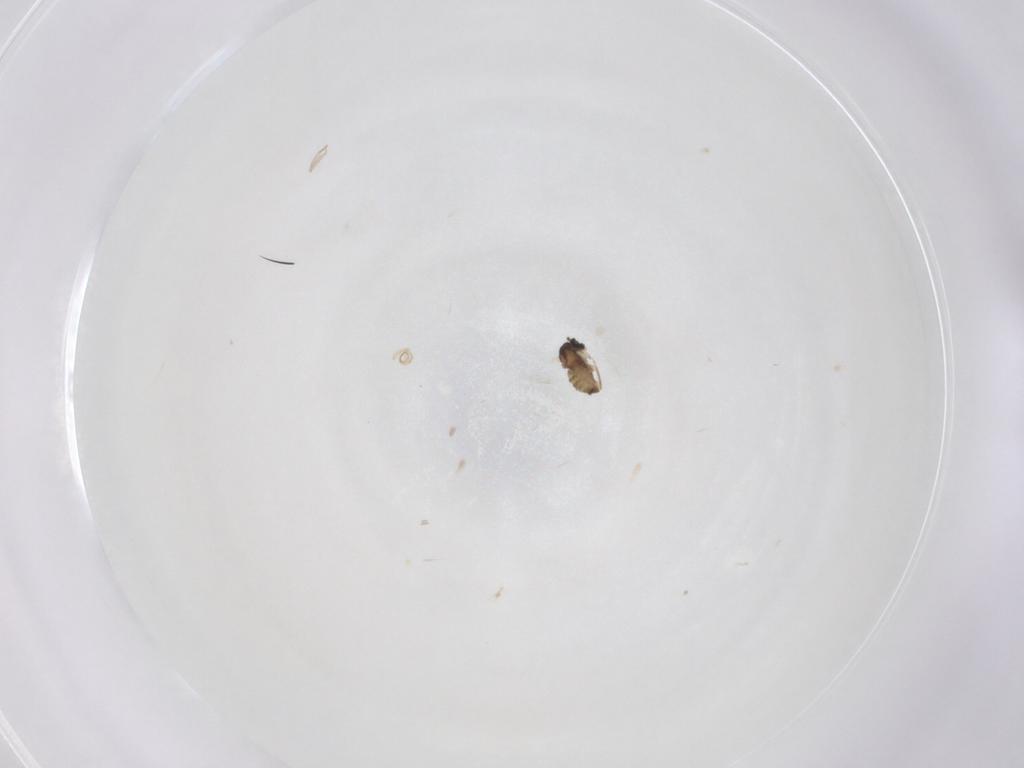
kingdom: Animalia
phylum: Arthropoda
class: Insecta
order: Diptera
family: Cecidomyiidae
